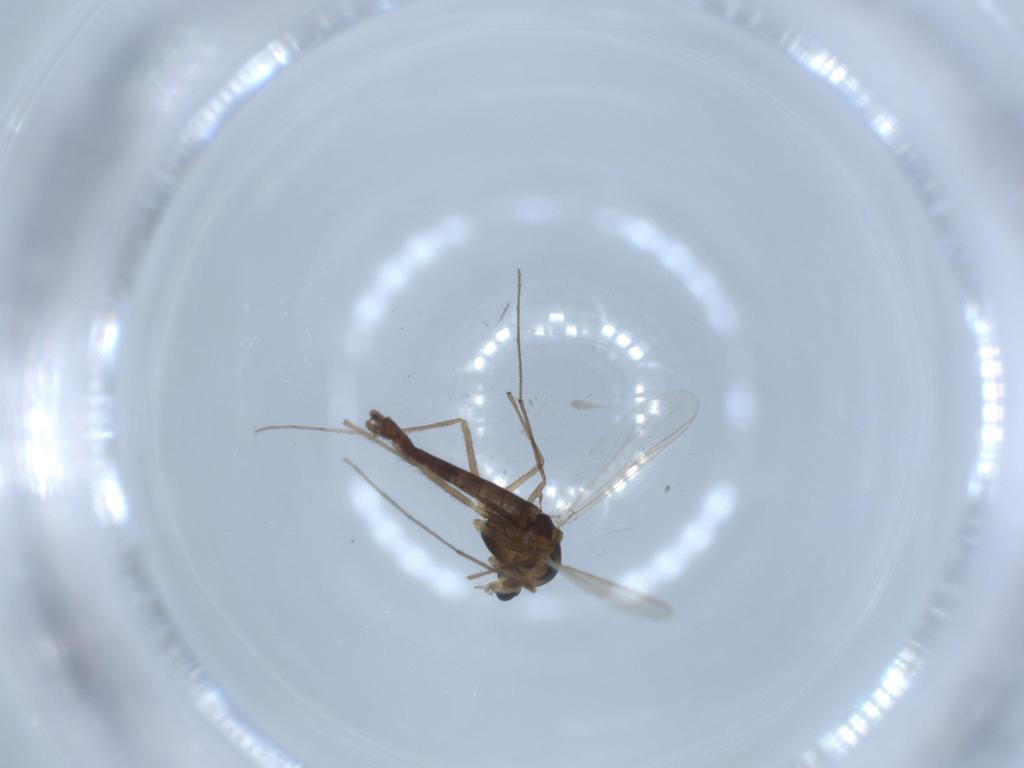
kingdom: Animalia
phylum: Arthropoda
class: Insecta
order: Diptera
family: Chironomidae
